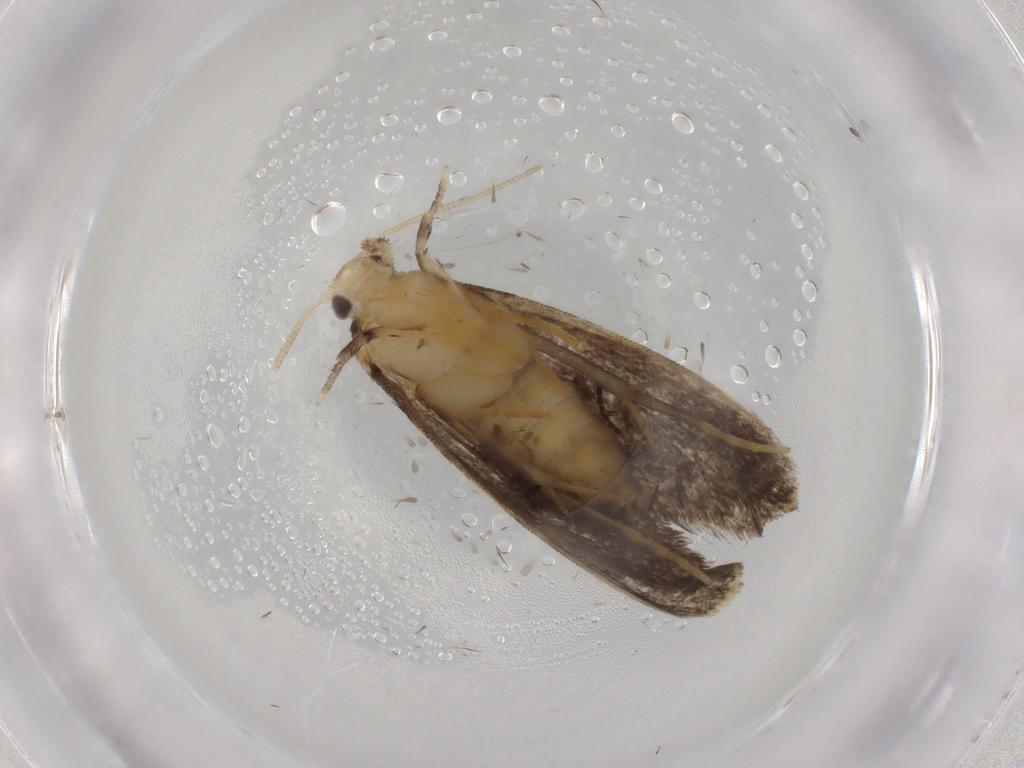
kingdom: Animalia
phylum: Arthropoda
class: Insecta
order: Lepidoptera
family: Dryadaulidae
